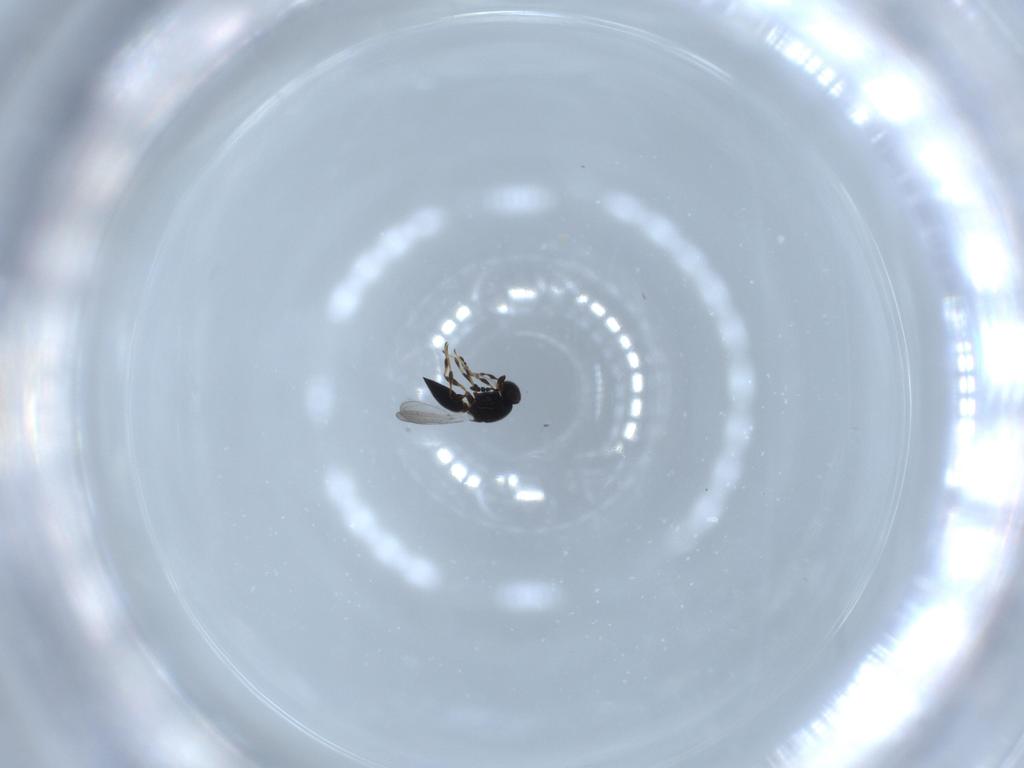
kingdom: Animalia
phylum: Arthropoda
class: Insecta
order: Hymenoptera
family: Platygastridae
